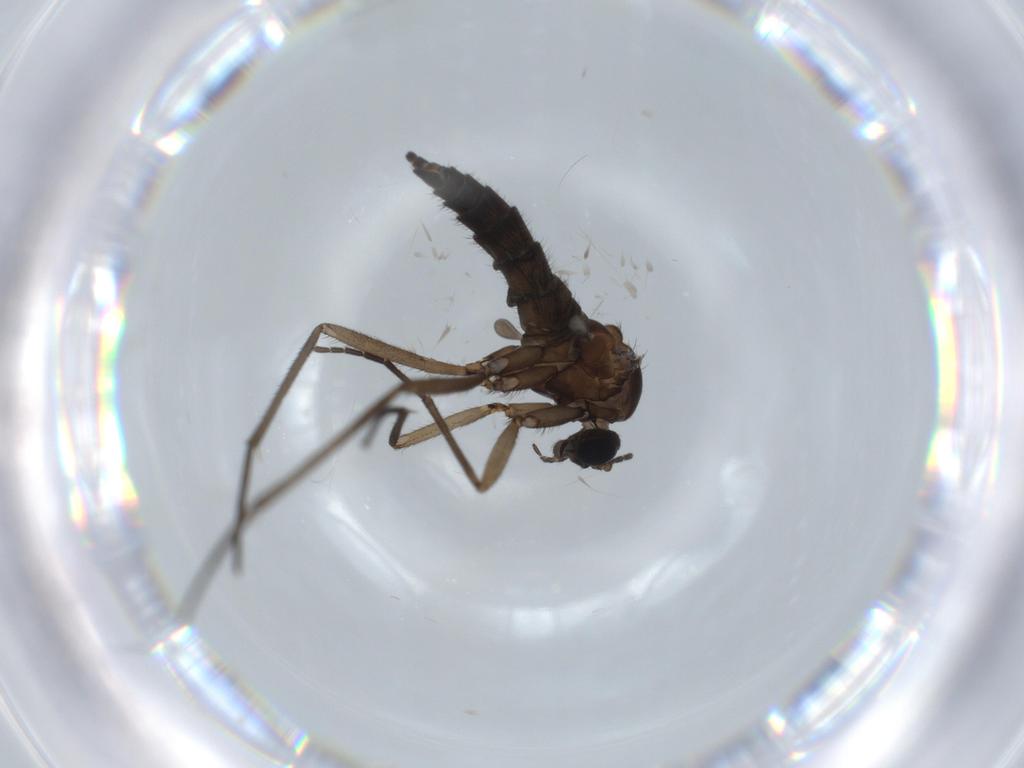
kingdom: Animalia
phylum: Arthropoda
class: Insecta
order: Diptera
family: Sciaridae
